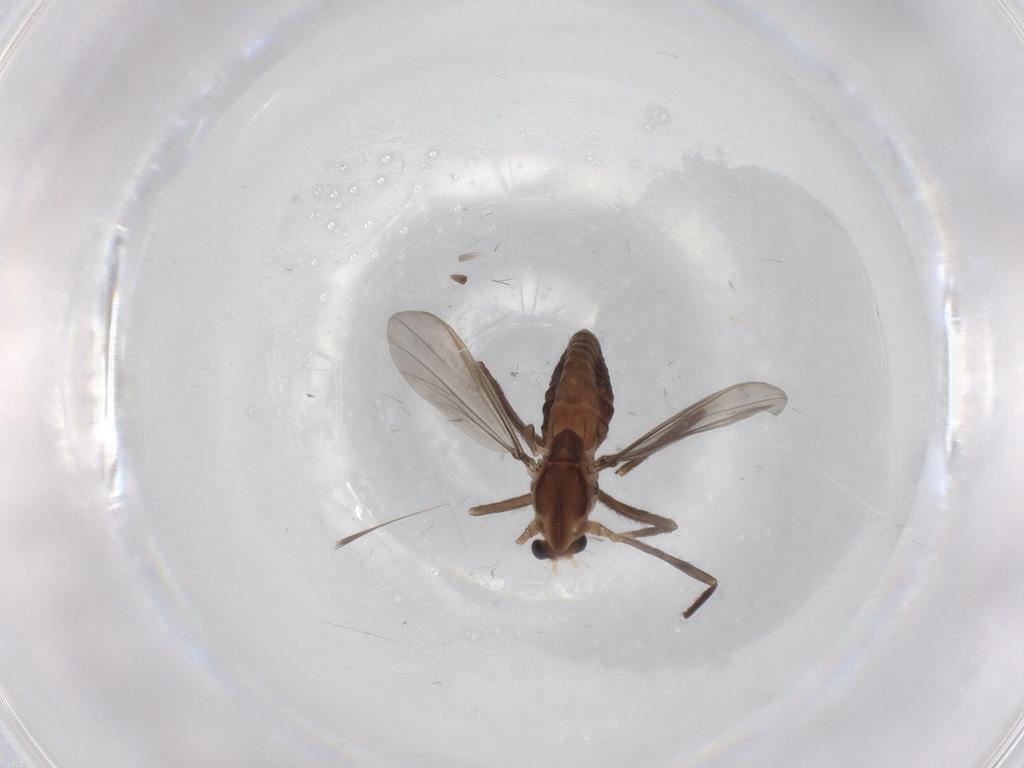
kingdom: Animalia
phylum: Arthropoda
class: Insecta
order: Diptera
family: Chironomidae
